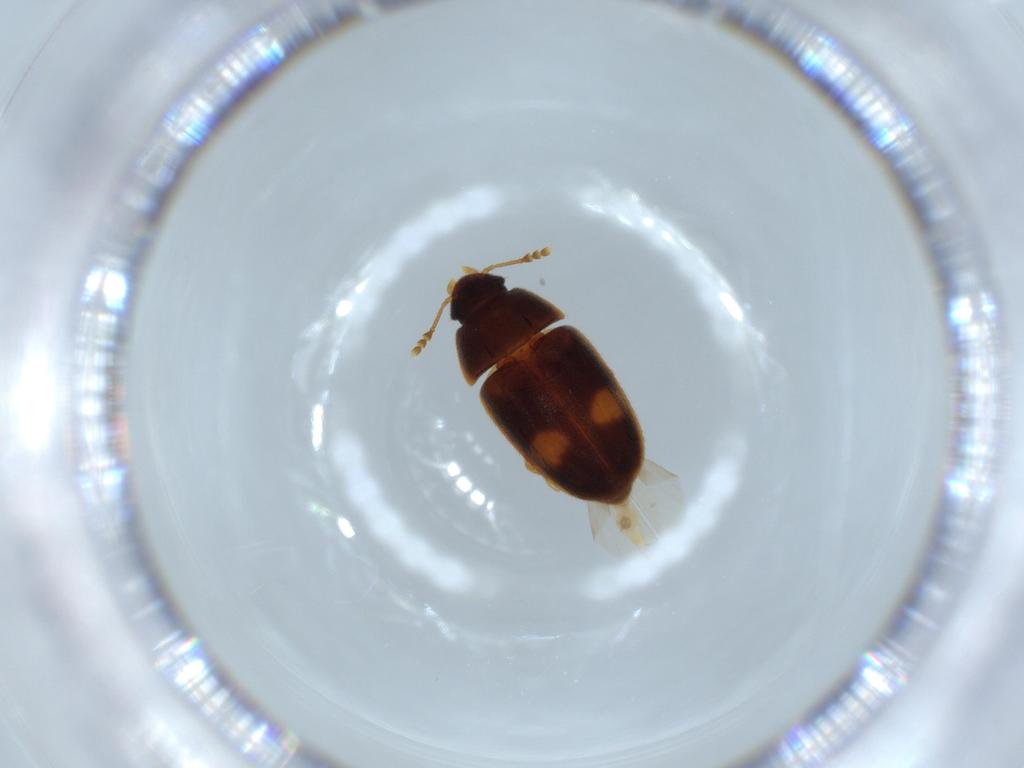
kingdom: Animalia
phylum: Arthropoda
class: Insecta
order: Coleoptera
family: Mycetophagidae
